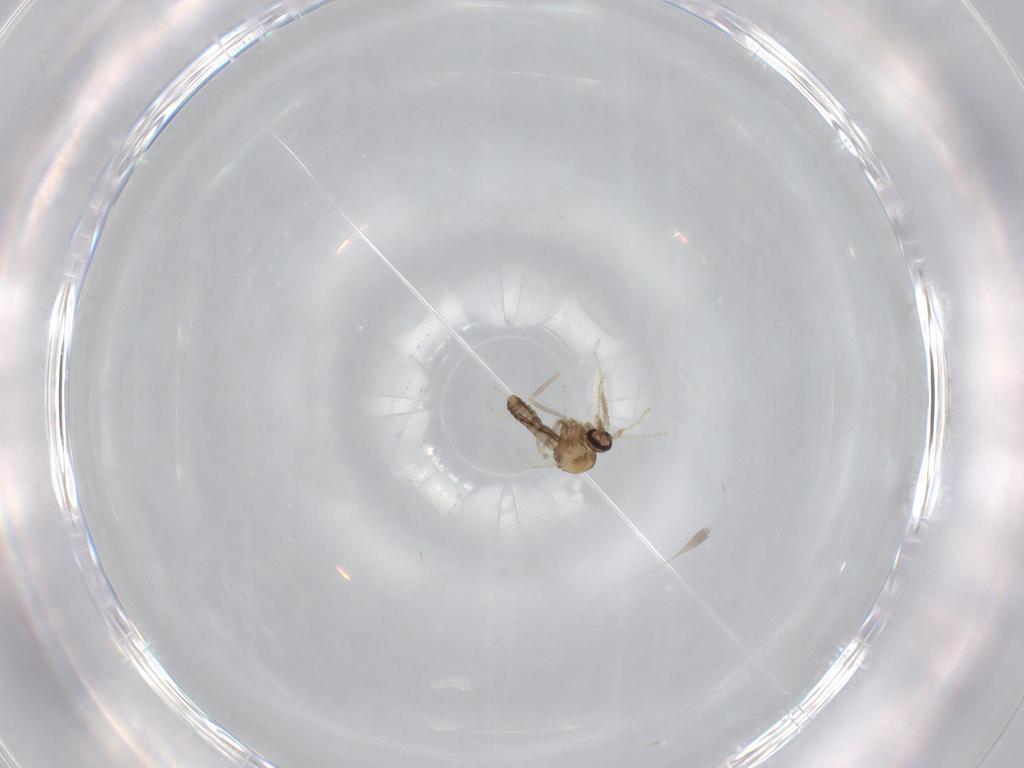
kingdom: Animalia
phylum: Arthropoda
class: Insecta
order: Diptera
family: Ceratopogonidae
